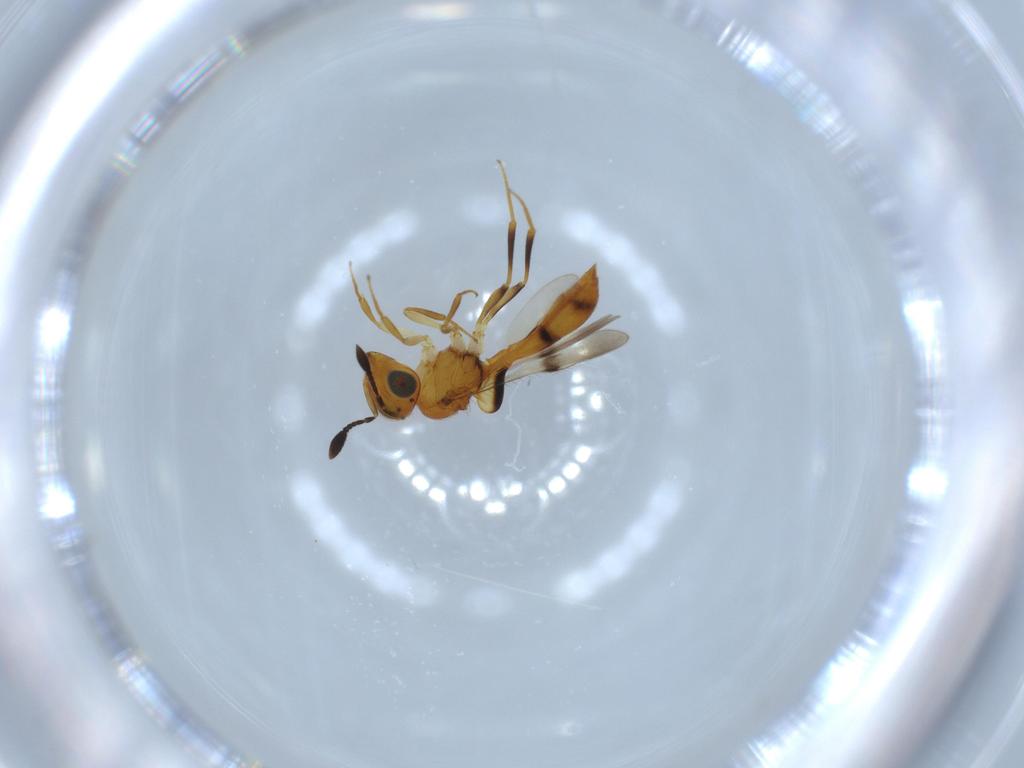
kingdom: Animalia
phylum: Arthropoda
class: Insecta
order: Hymenoptera
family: Scelionidae
